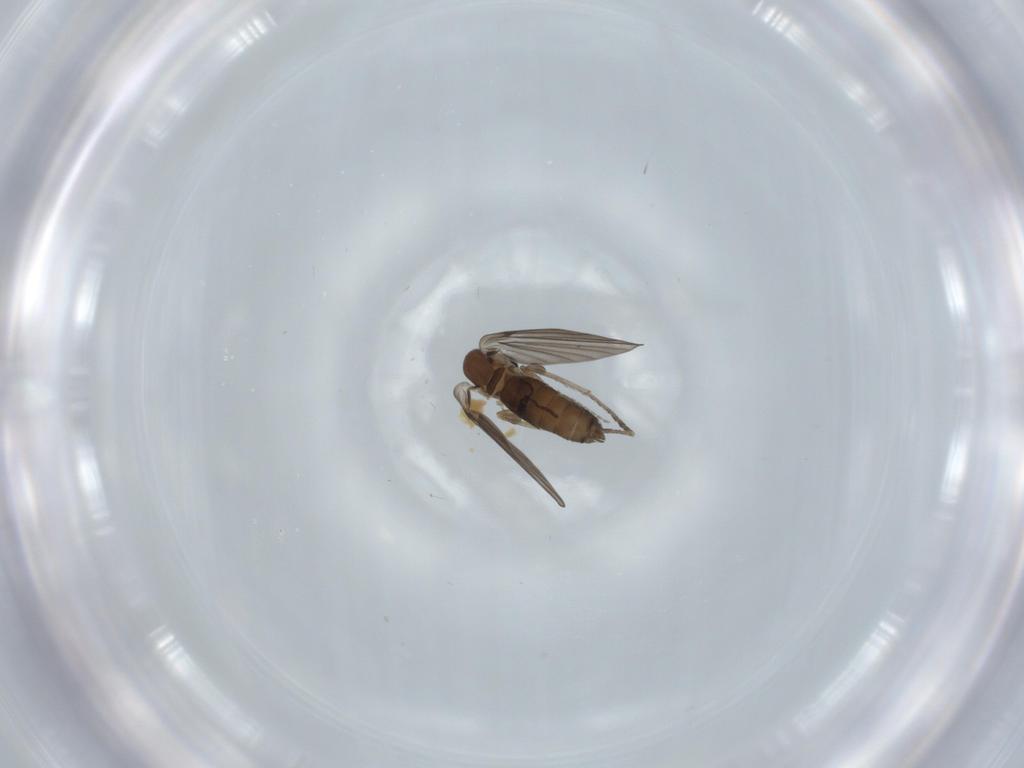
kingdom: Animalia
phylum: Arthropoda
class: Insecta
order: Diptera
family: Psychodidae
